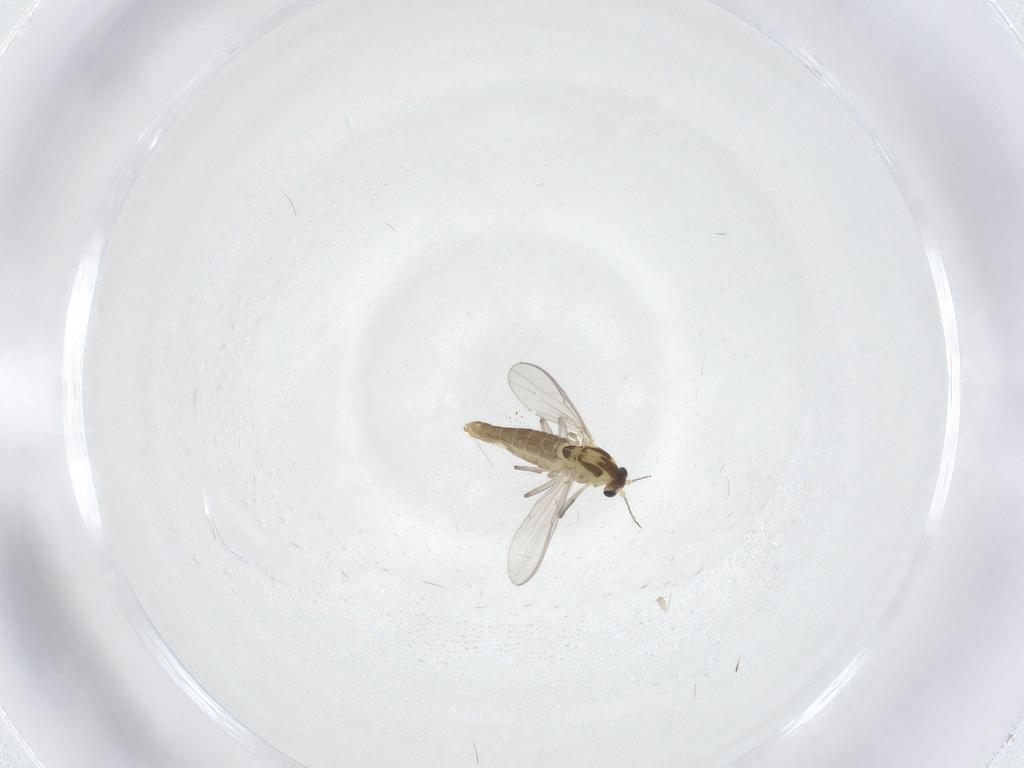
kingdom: Animalia
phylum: Arthropoda
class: Insecta
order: Diptera
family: Chironomidae
